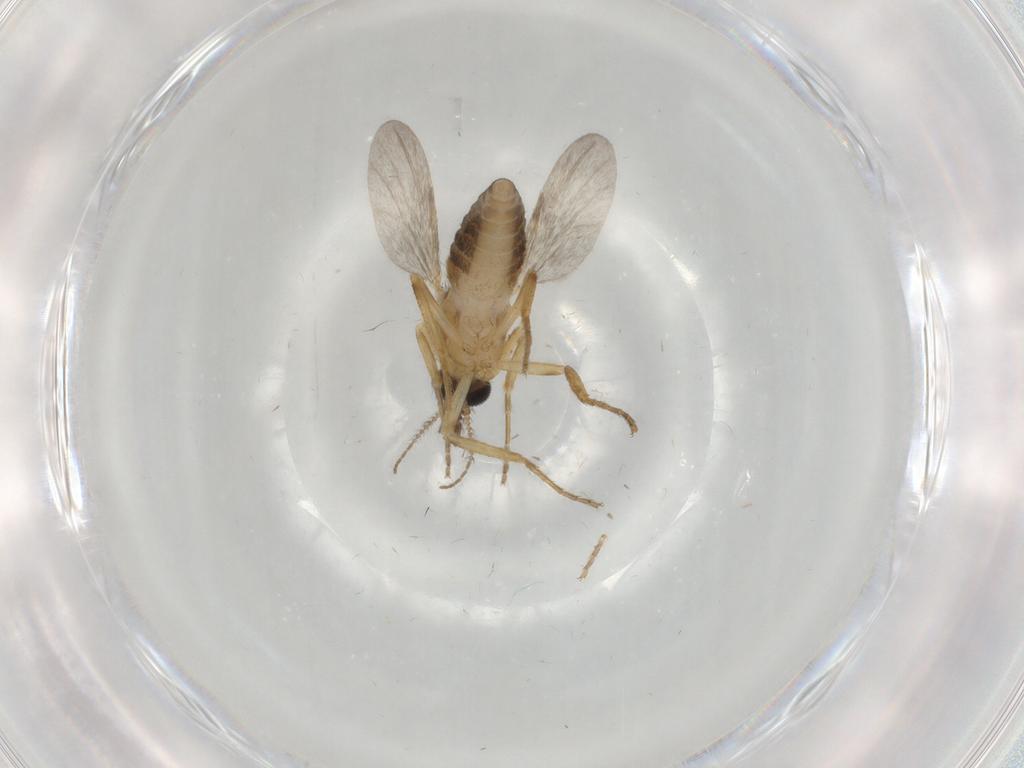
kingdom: Animalia
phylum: Arthropoda
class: Insecta
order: Diptera
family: Ceratopogonidae
